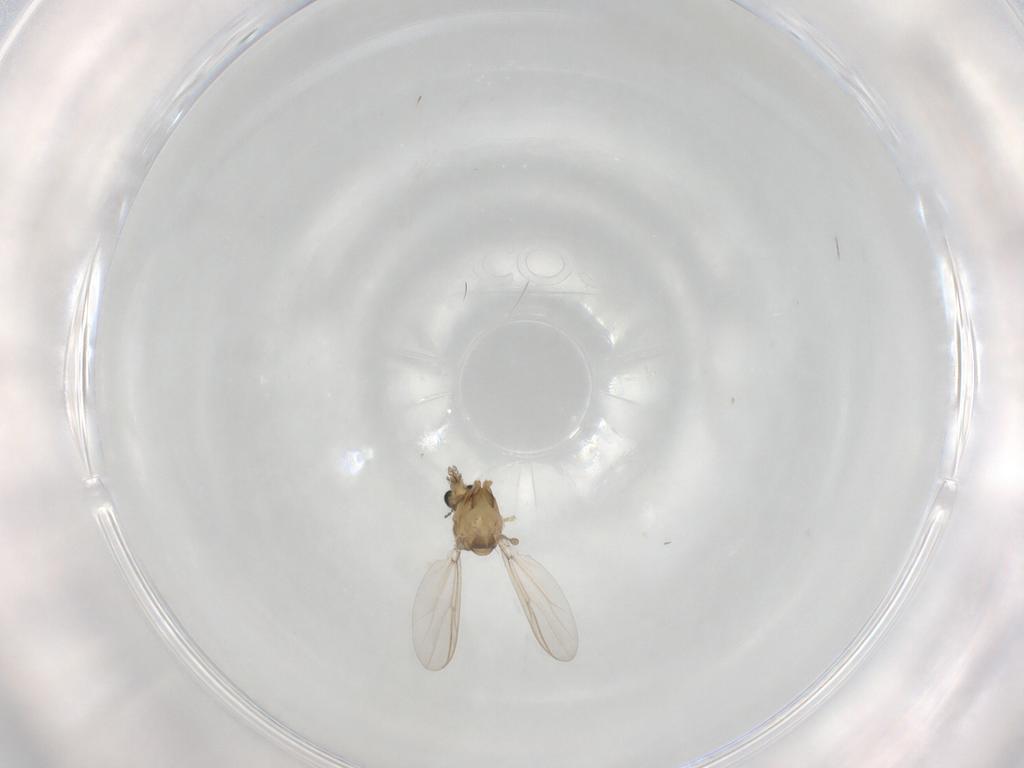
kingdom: Animalia
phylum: Arthropoda
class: Insecta
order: Diptera
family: Chironomidae
